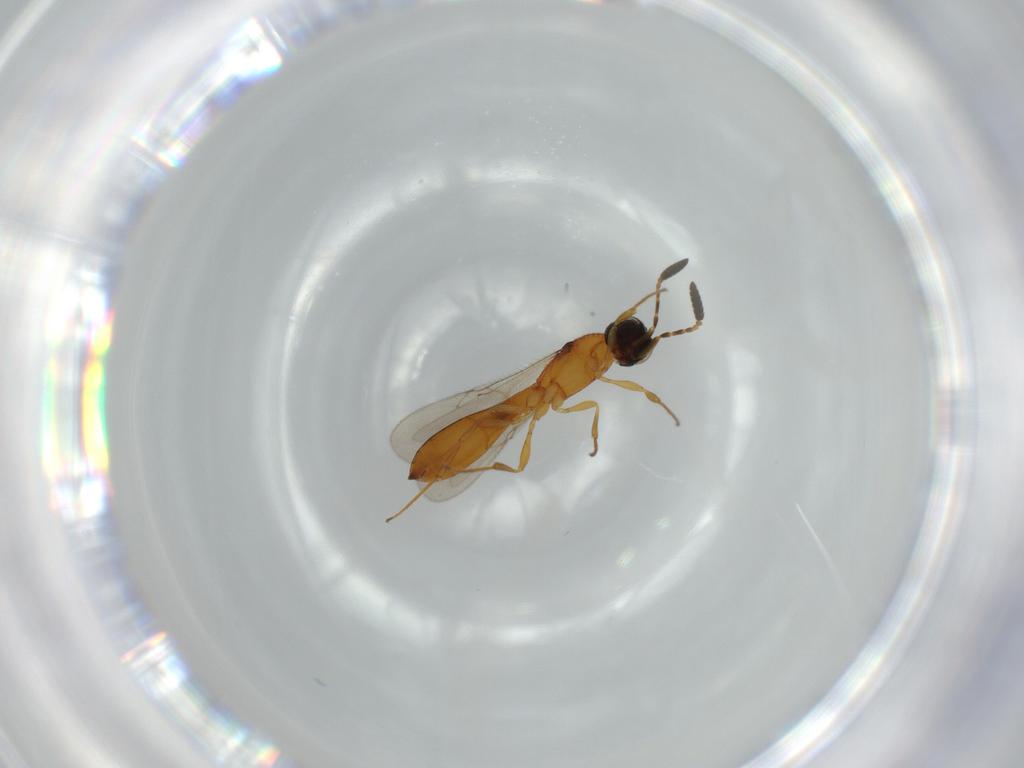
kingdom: Animalia
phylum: Arthropoda
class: Insecta
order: Hymenoptera
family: Scelionidae
